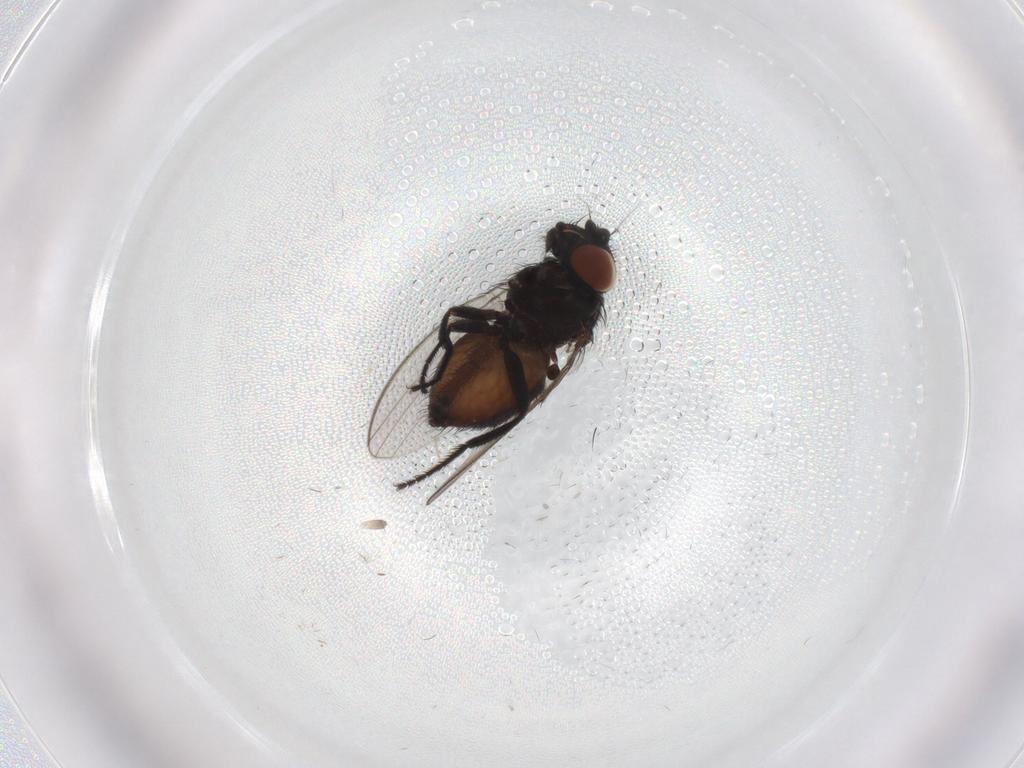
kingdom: Animalia
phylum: Arthropoda
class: Insecta
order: Diptera
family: Milichiidae
